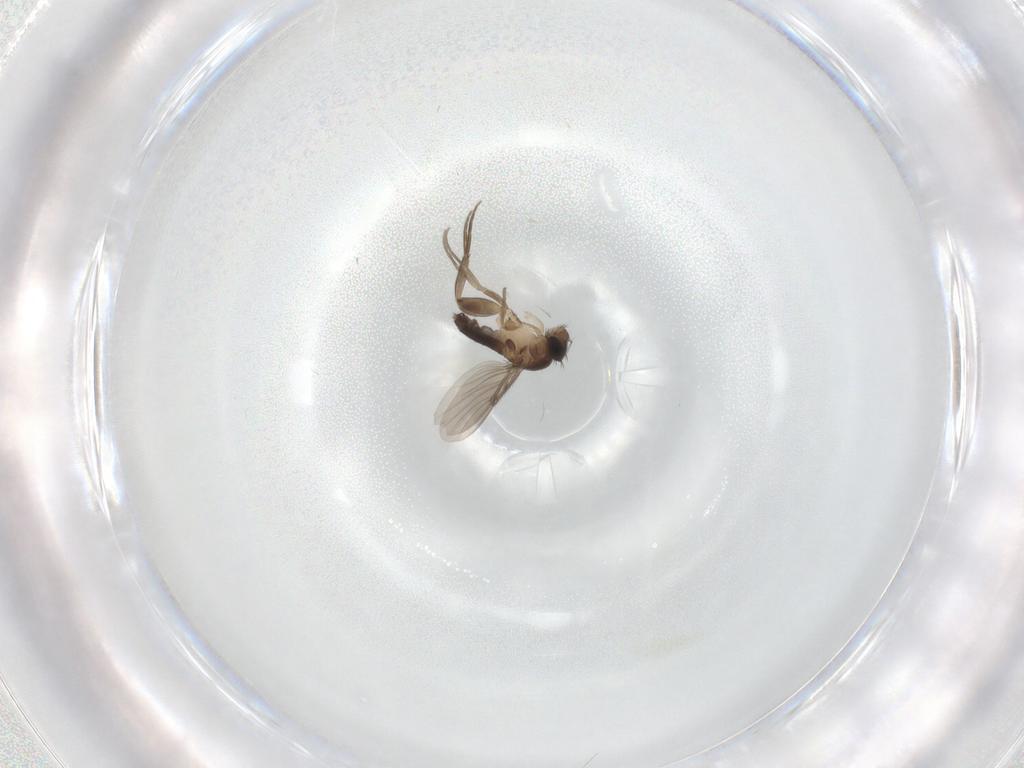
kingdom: Animalia
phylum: Arthropoda
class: Insecta
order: Diptera
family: Phoridae
